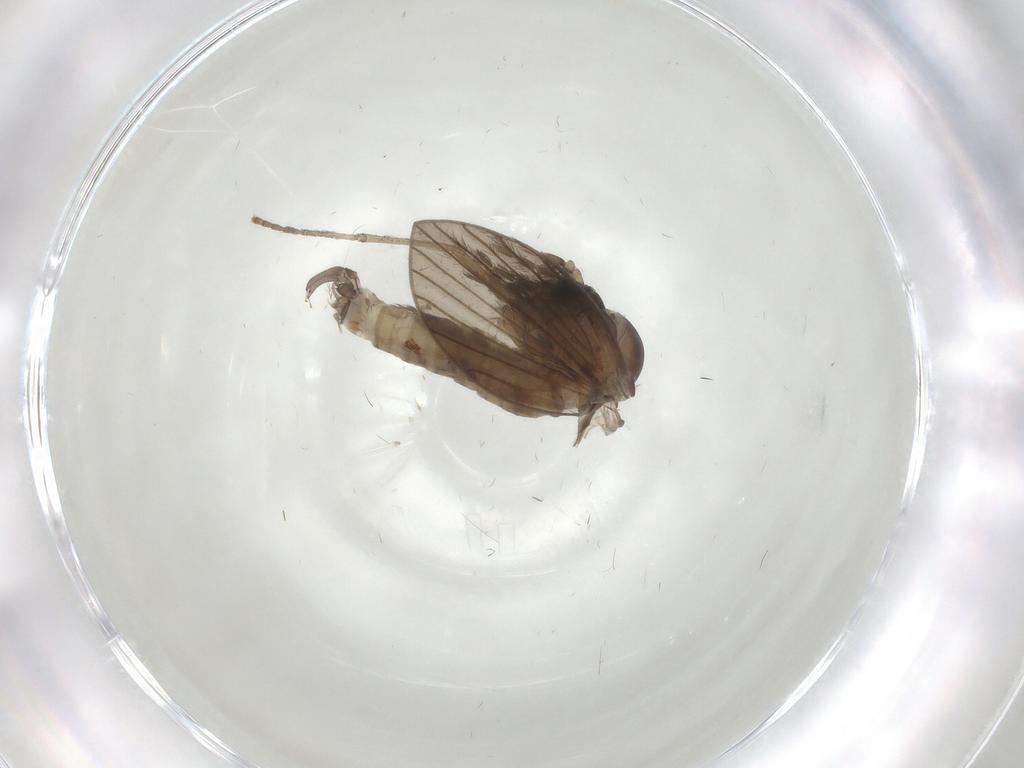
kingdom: Animalia
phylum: Arthropoda
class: Insecta
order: Diptera
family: Psychodidae
